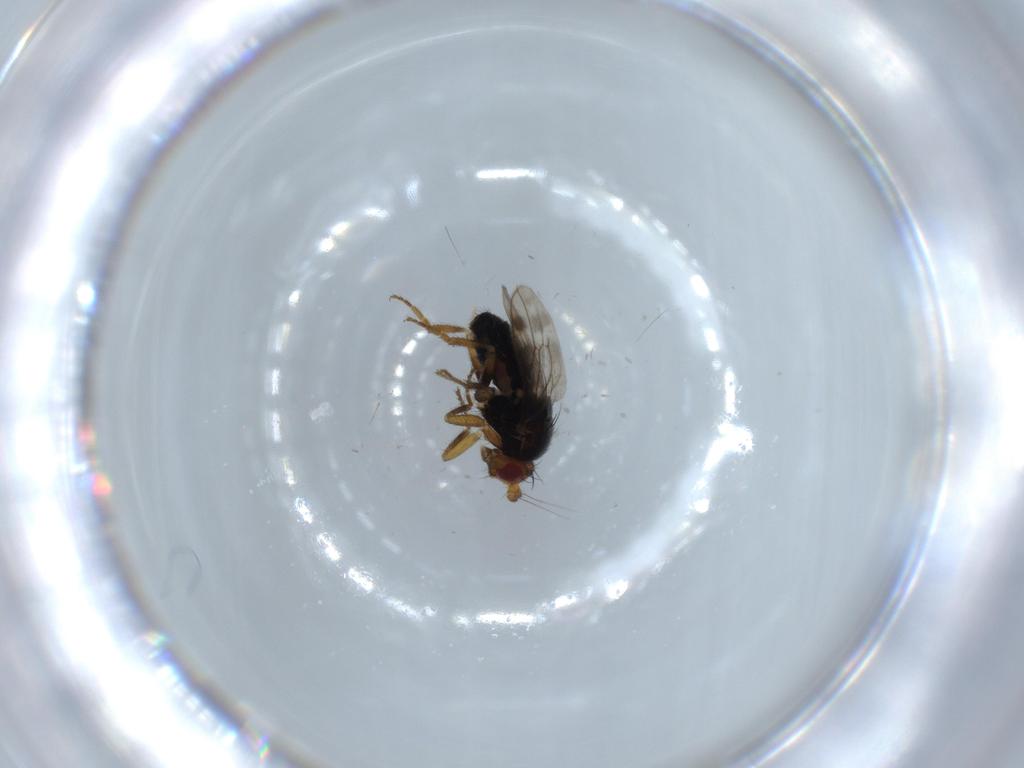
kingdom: Animalia
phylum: Arthropoda
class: Insecta
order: Diptera
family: Sphaeroceridae
